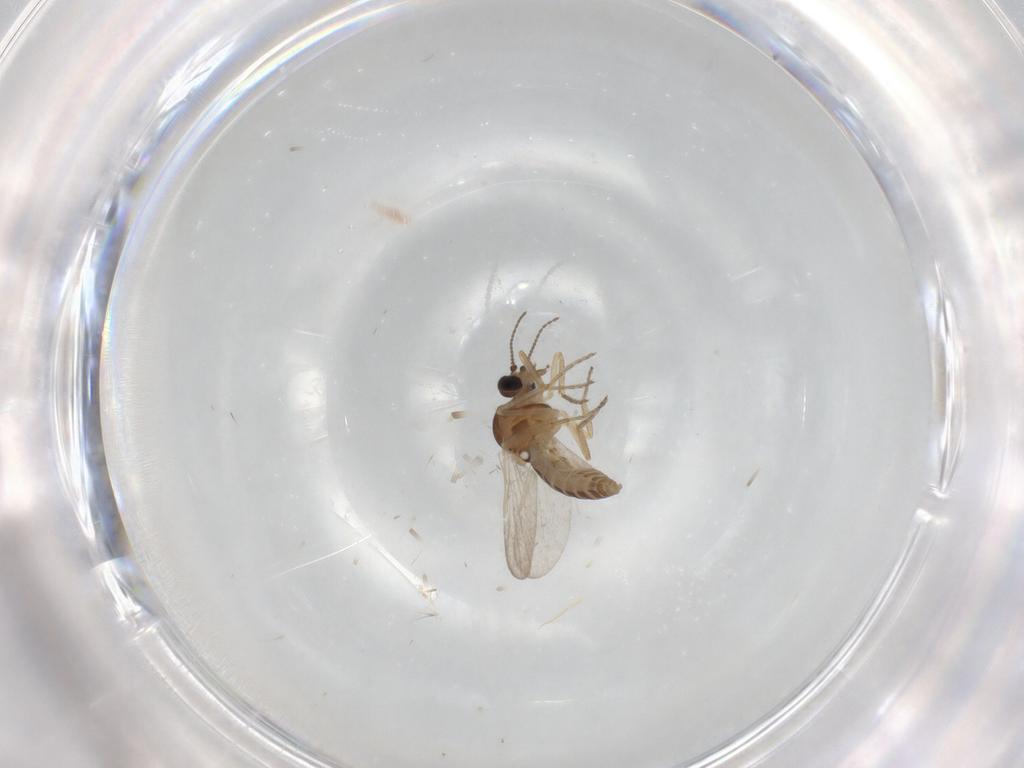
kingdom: Animalia
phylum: Arthropoda
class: Insecta
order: Diptera
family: Ceratopogonidae
